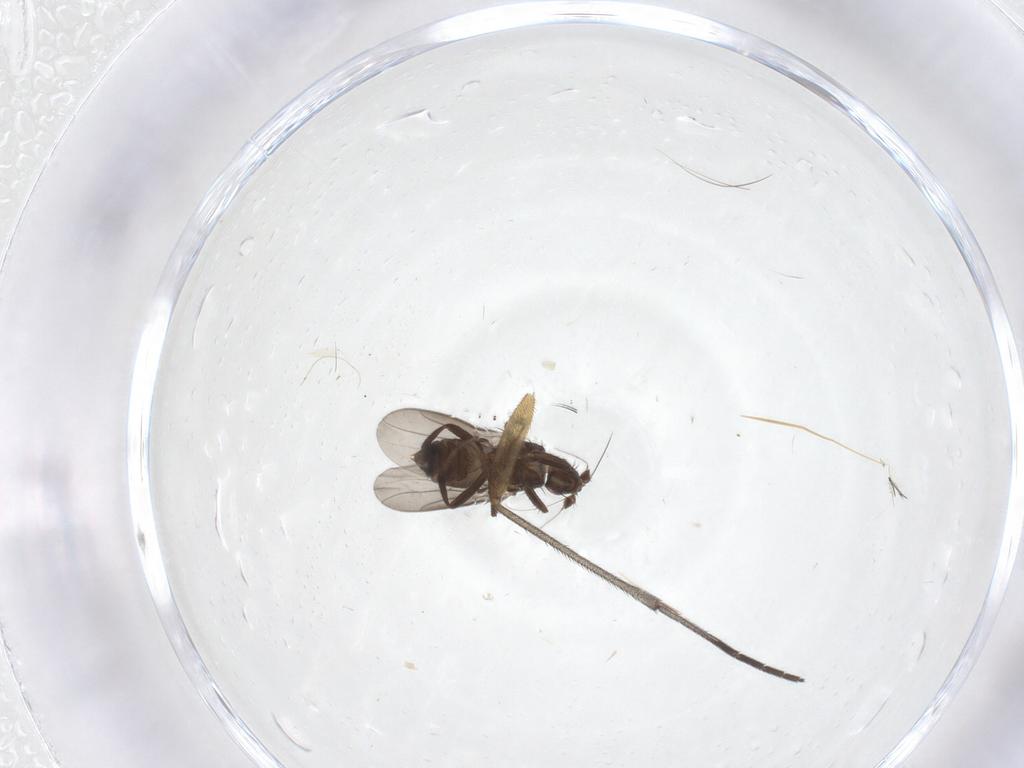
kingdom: Animalia
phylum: Arthropoda
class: Insecta
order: Diptera
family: Sphaeroceridae
